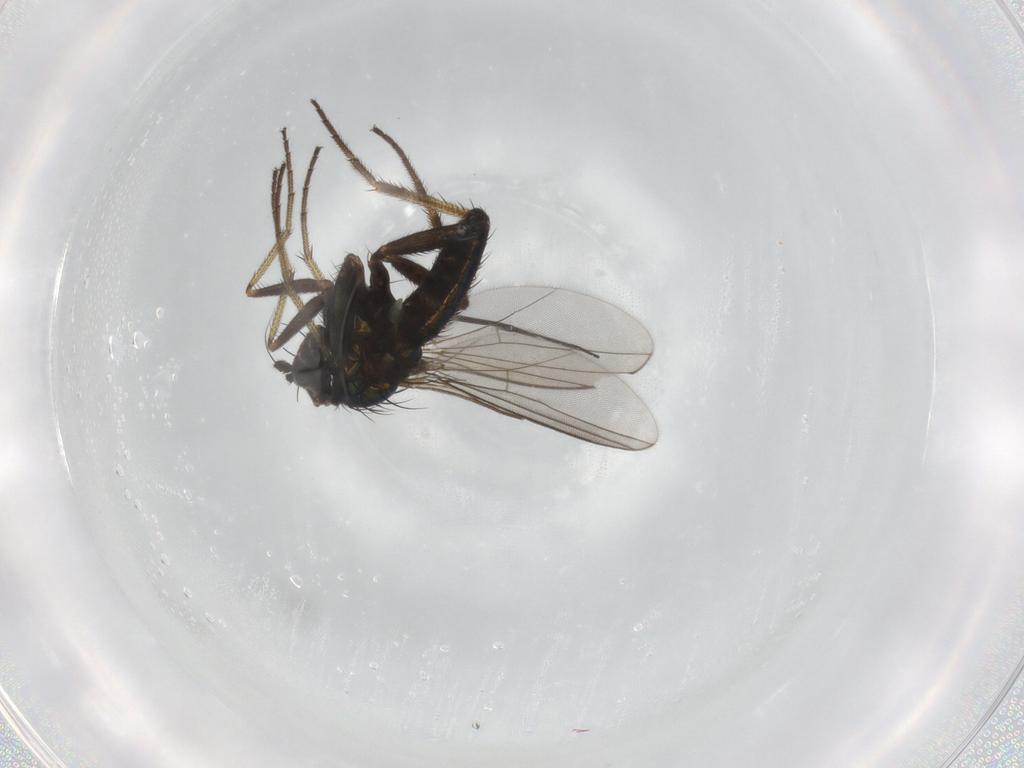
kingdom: Animalia
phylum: Arthropoda
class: Insecta
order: Diptera
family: Dolichopodidae
